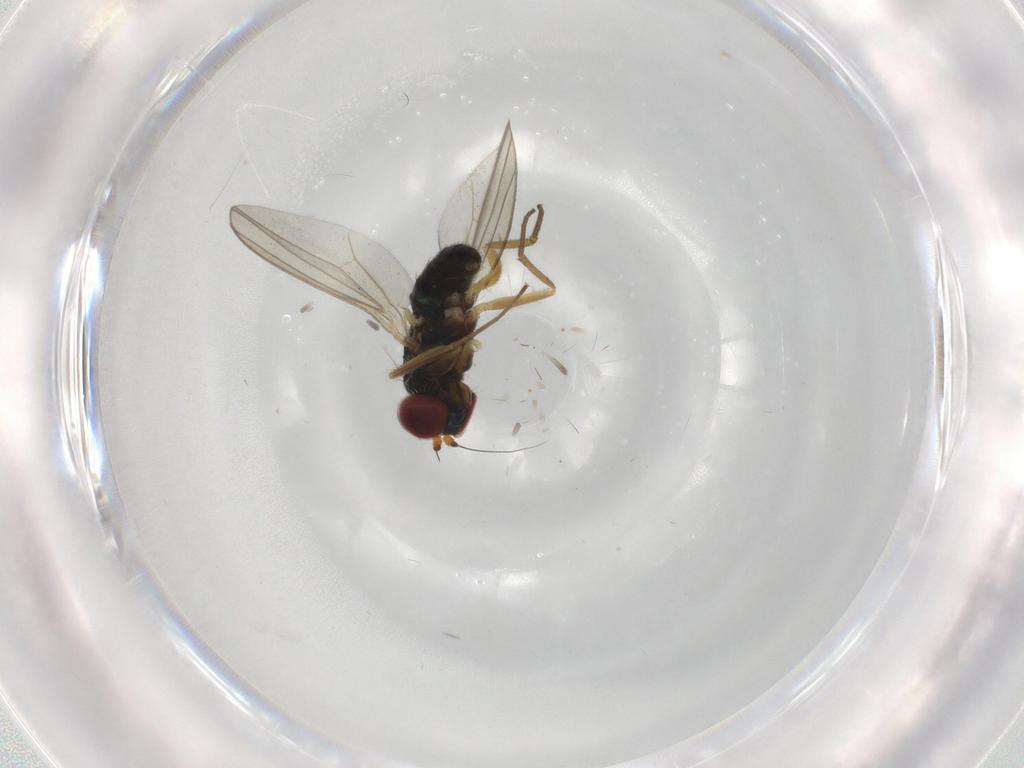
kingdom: Animalia
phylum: Arthropoda
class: Insecta
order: Diptera
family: Dolichopodidae
